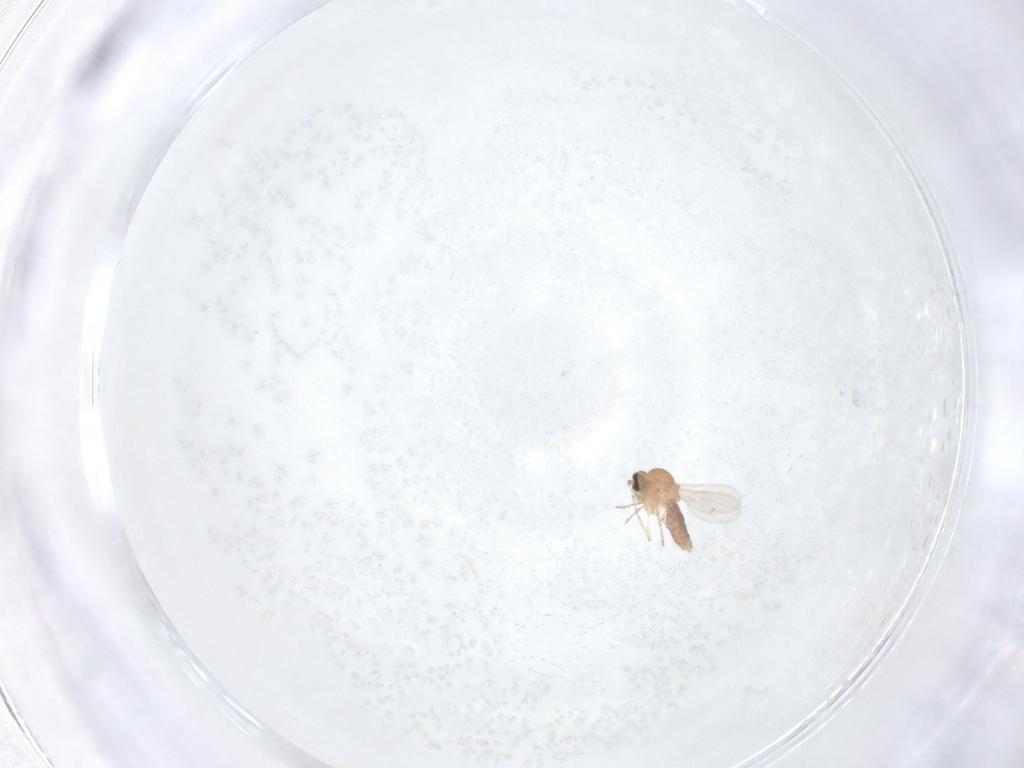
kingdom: Animalia
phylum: Arthropoda
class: Insecta
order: Diptera
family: Ceratopogonidae
